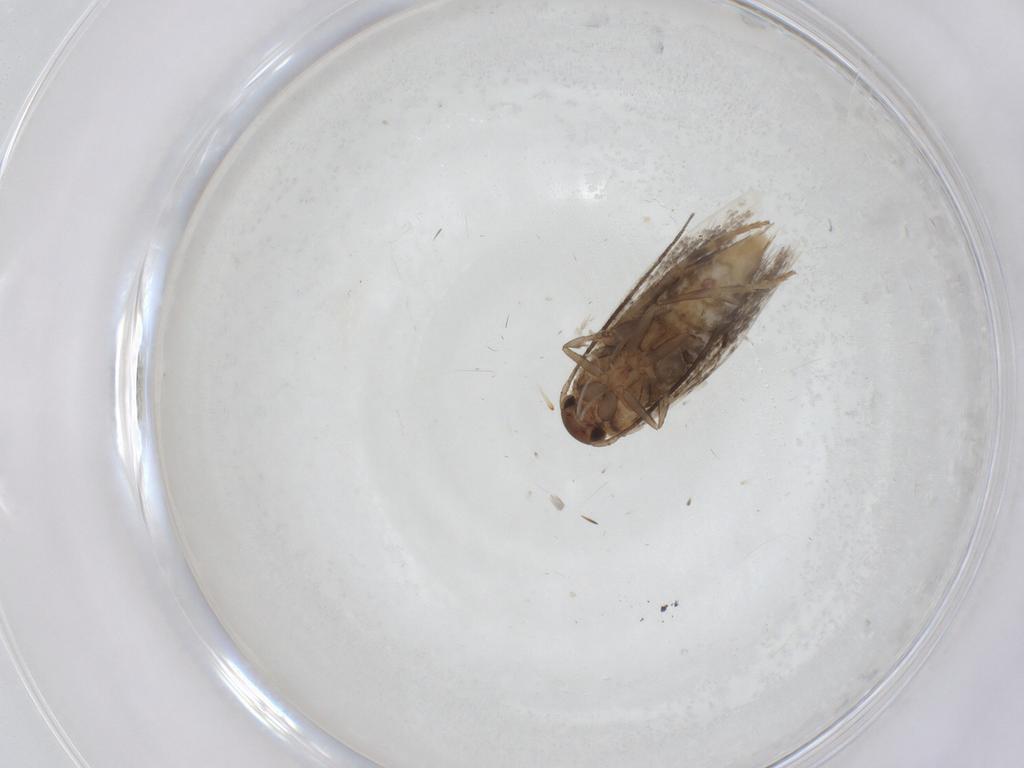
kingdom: Animalia
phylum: Arthropoda
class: Insecta
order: Lepidoptera
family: Elachistidae
